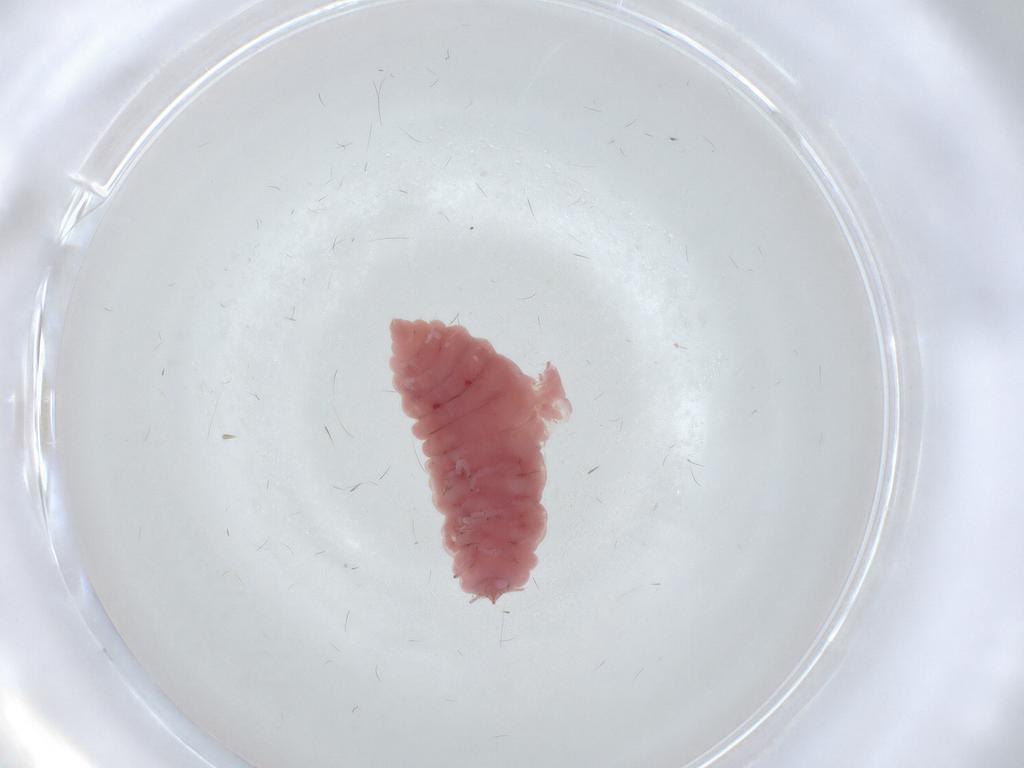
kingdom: Animalia
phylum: Arthropoda
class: Insecta
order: Neuroptera
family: Coniopterygidae
